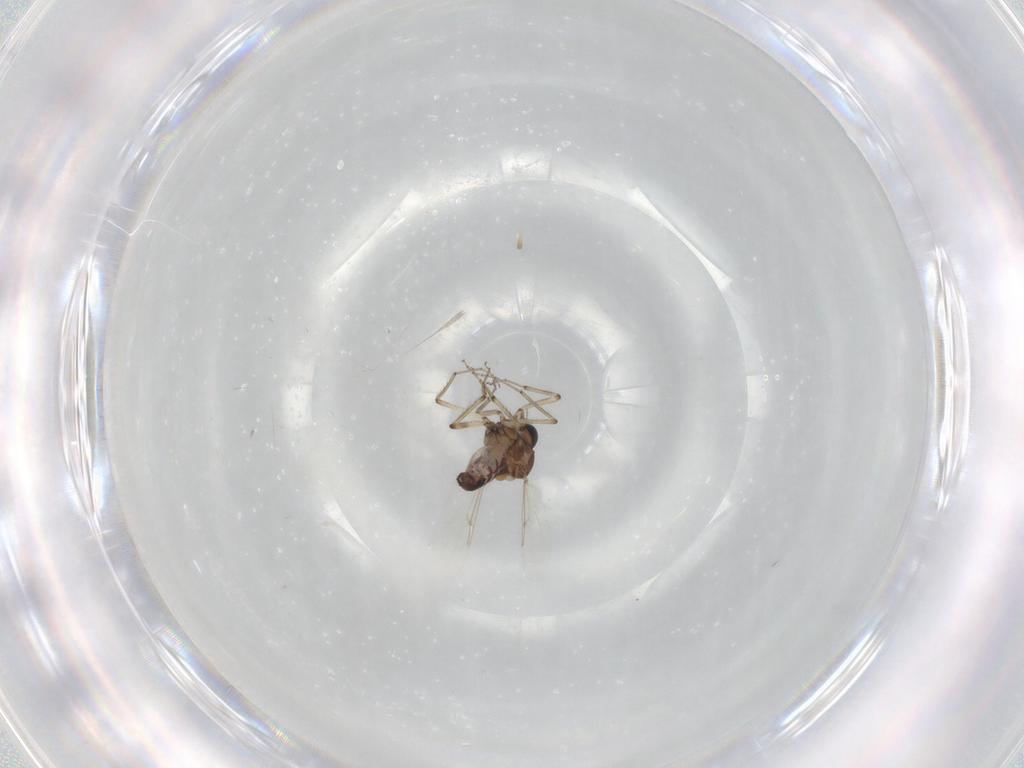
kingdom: Animalia
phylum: Arthropoda
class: Insecta
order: Diptera
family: Ceratopogonidae
